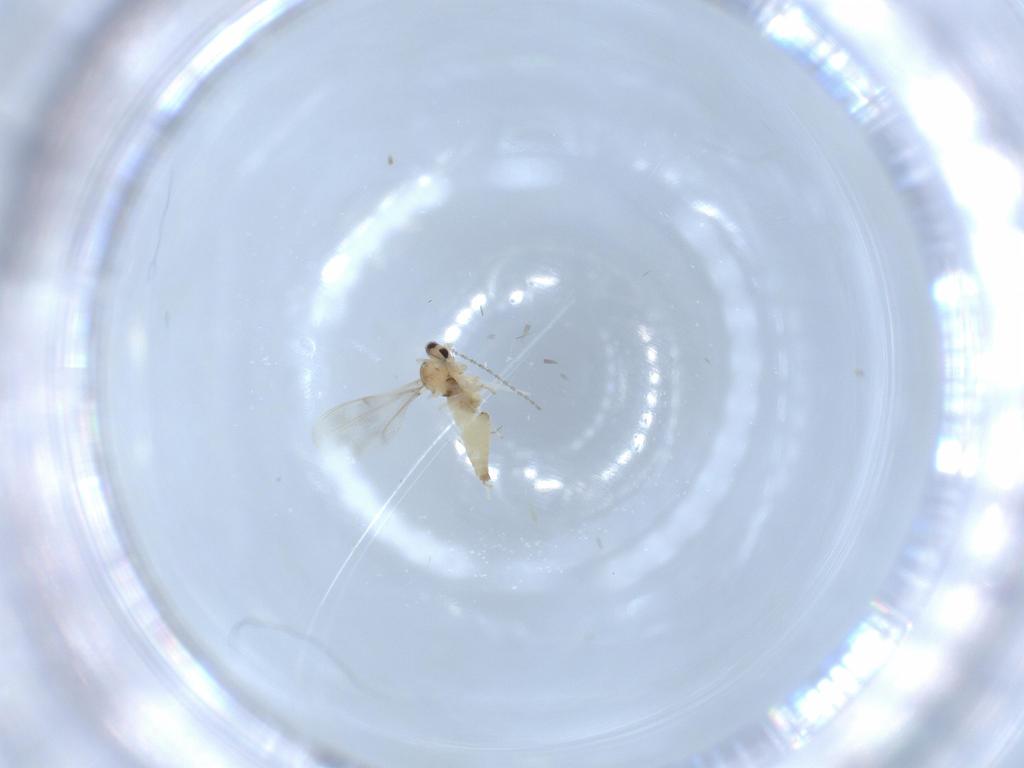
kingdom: Animalia
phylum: Arthropoda
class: Insecta
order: Diptera
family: Cecidomyiidae
